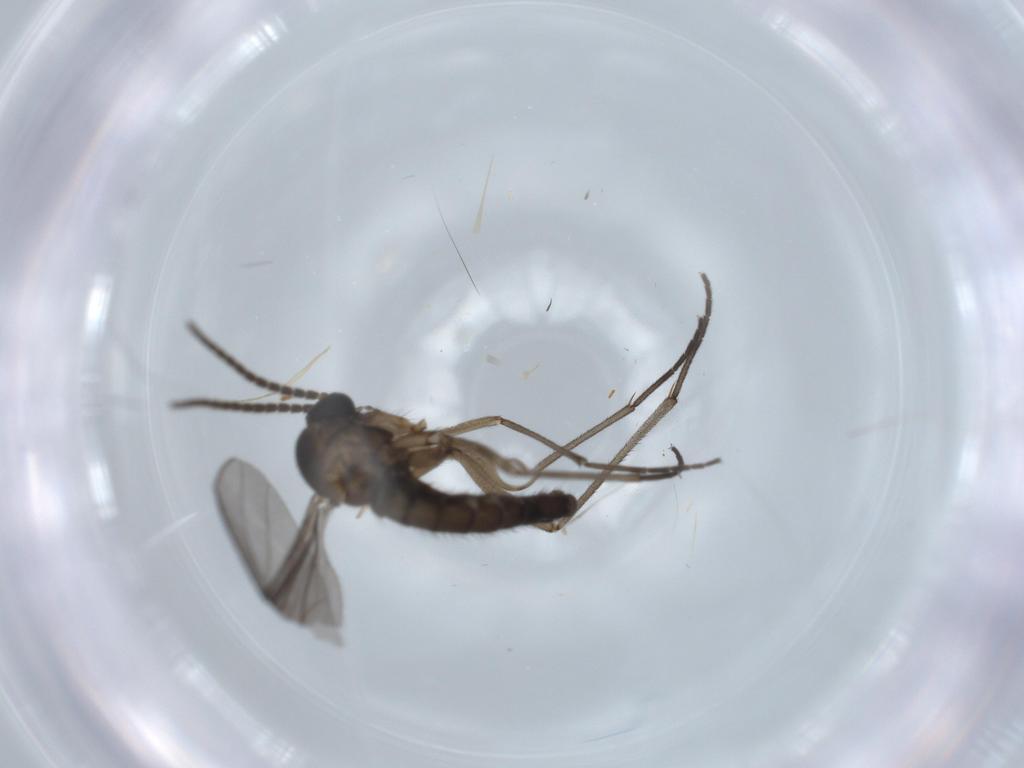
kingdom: Animalia
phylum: Arthropoda
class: Insecta
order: Diptera
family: Sciaridae
